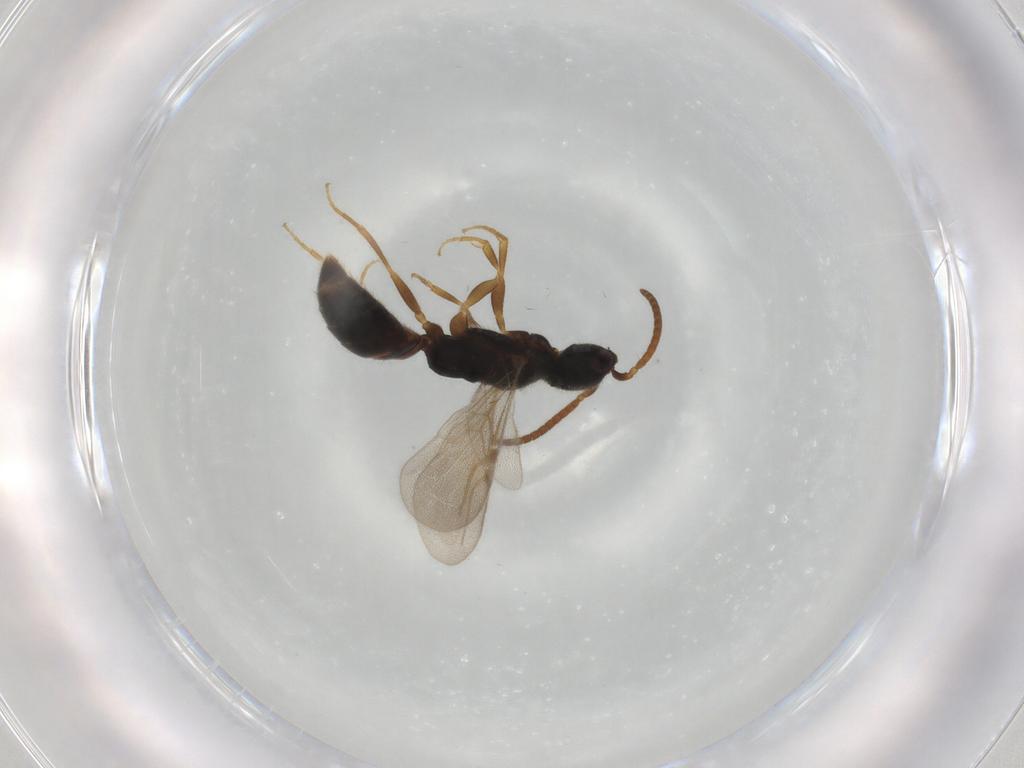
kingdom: Animalia
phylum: Arthropoda
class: Insecta
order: Hymenoptera
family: Bethylidae
